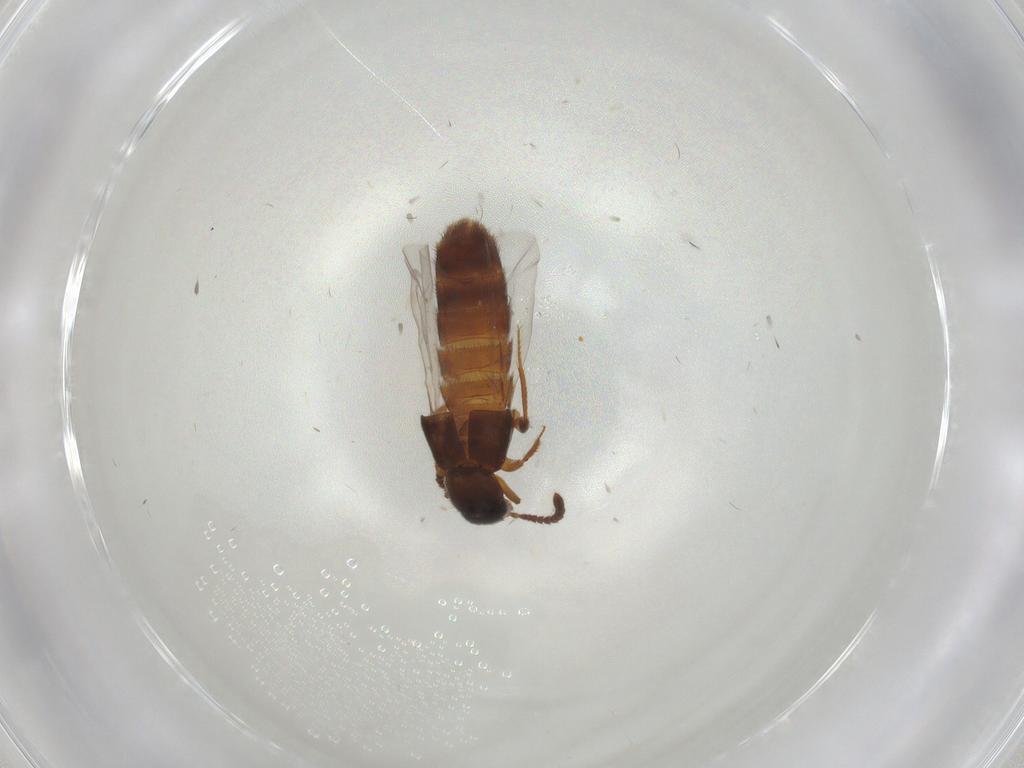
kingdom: Animalia
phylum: Arthropoda
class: Insecta
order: Coleoptera
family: Staphylinidae
